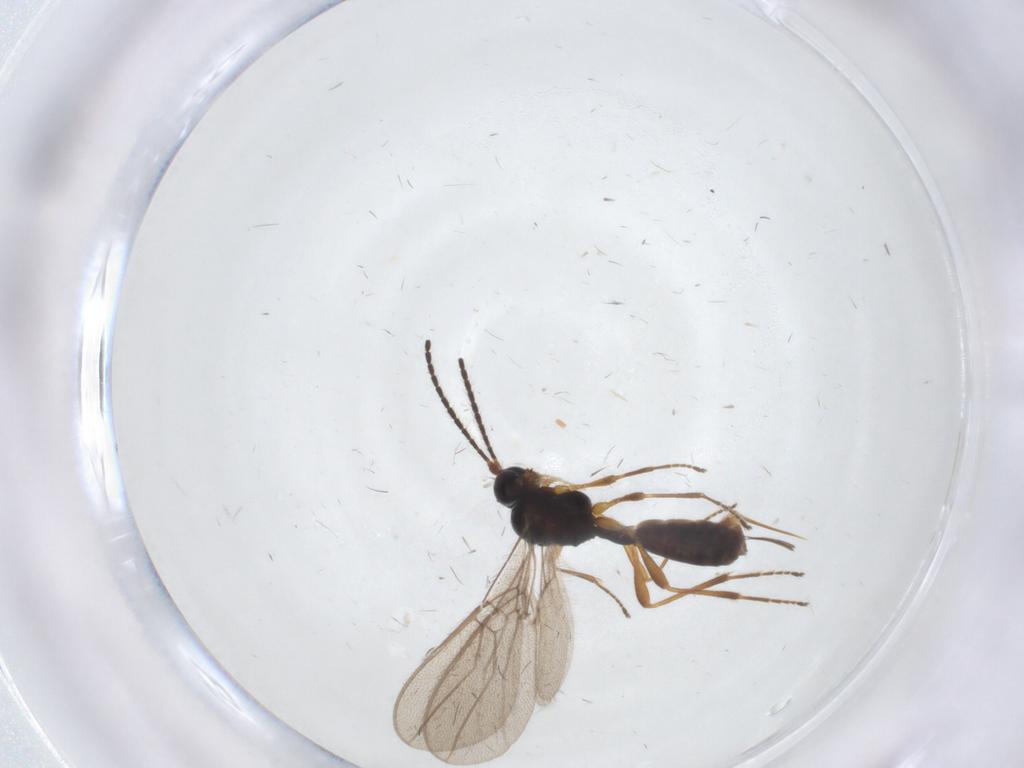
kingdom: Animalia
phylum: Arthropoda
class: Insecta
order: Hymenoptera
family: Braconidae
